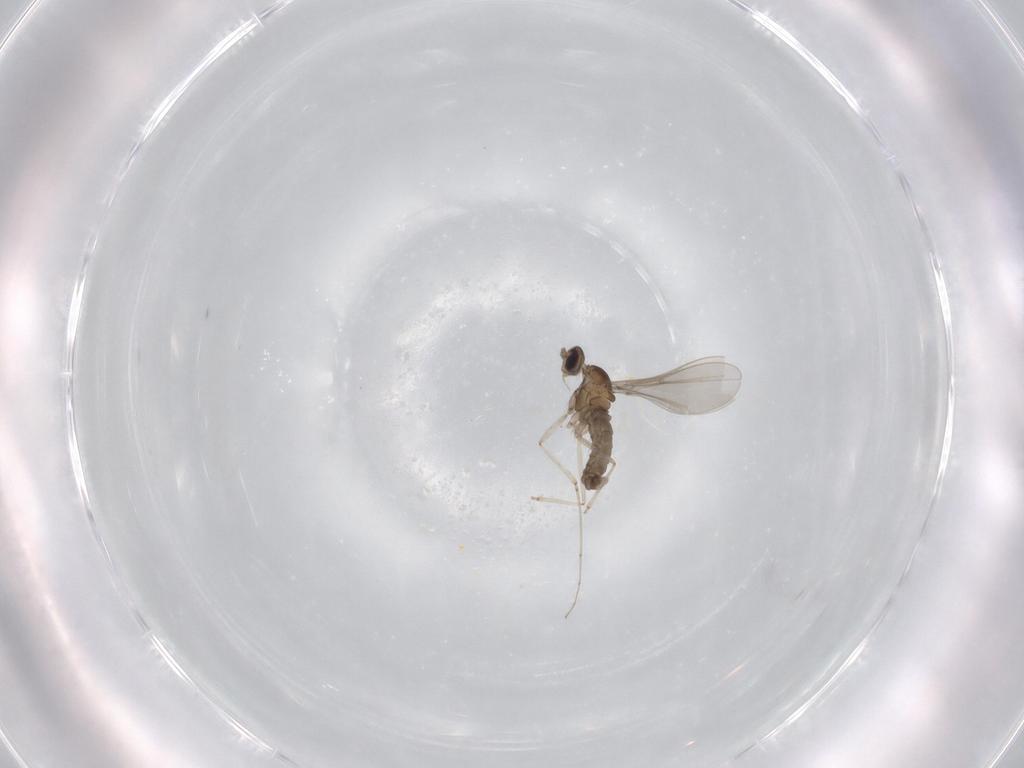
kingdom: Animalia
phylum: Arthropoda
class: Insecta
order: Diptera
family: Cecidomyiidae
